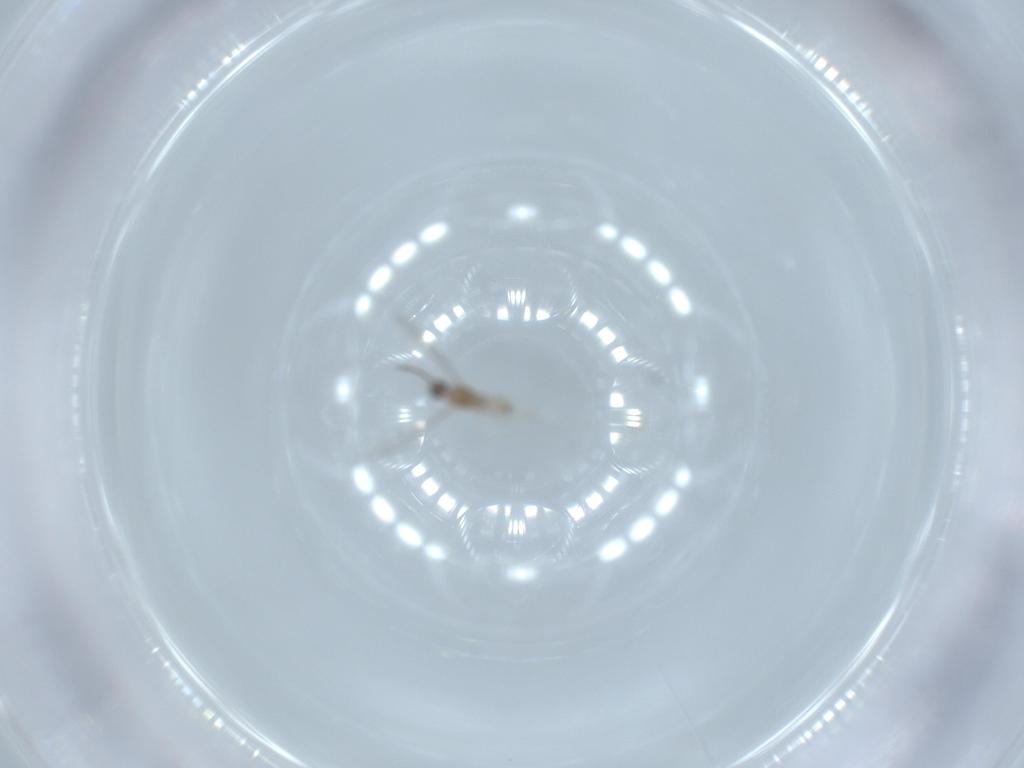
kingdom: Animalia
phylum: Arthropoda
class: Insecta
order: Diptera
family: Cecidomyiidae
